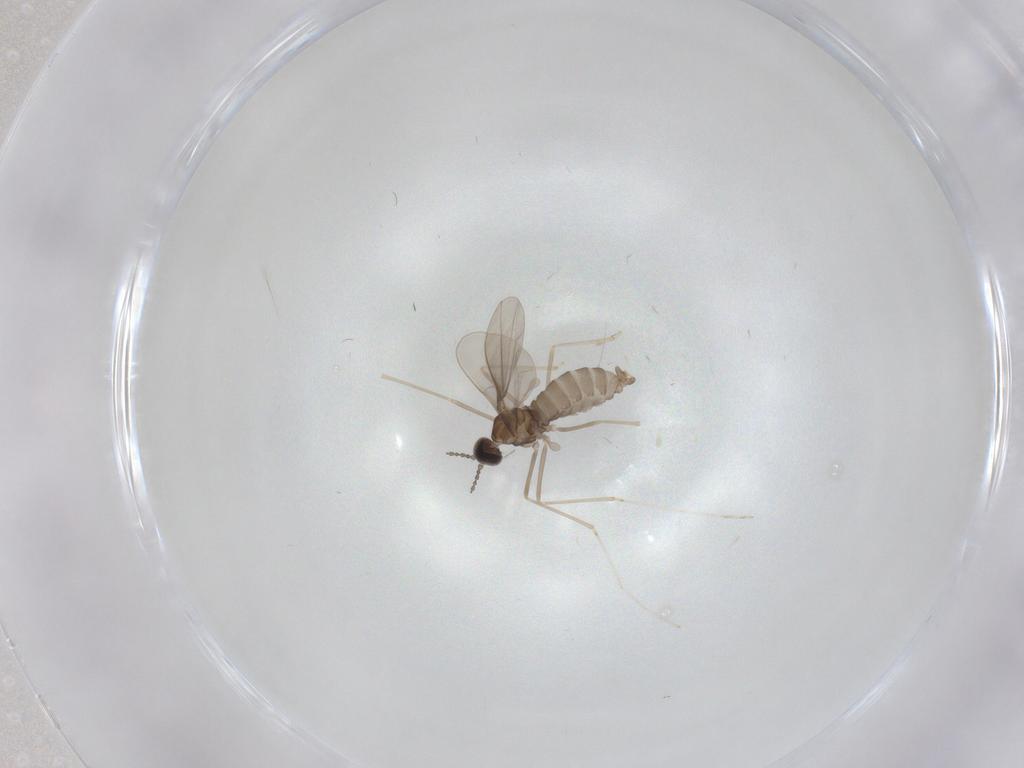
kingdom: Animalia
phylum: Arthropoda
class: Insecta
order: Diptera
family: Cecidomyiidae
